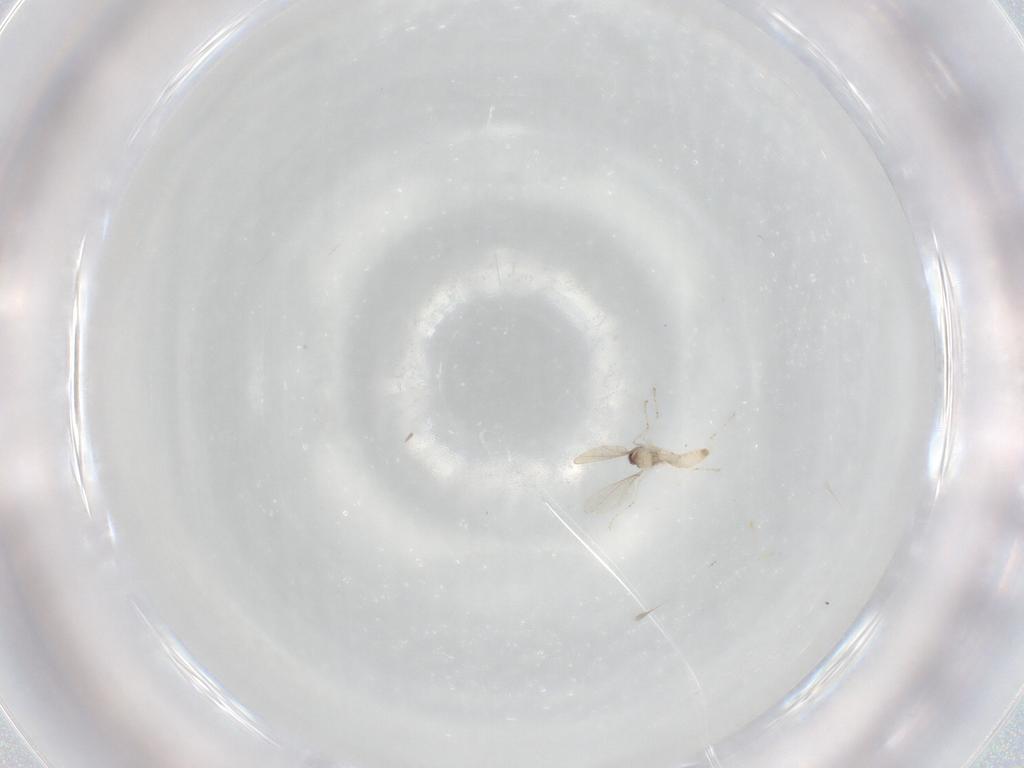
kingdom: Animalia
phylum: Arthropoda
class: Insecta
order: Diptera
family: Cecidomyiidae
